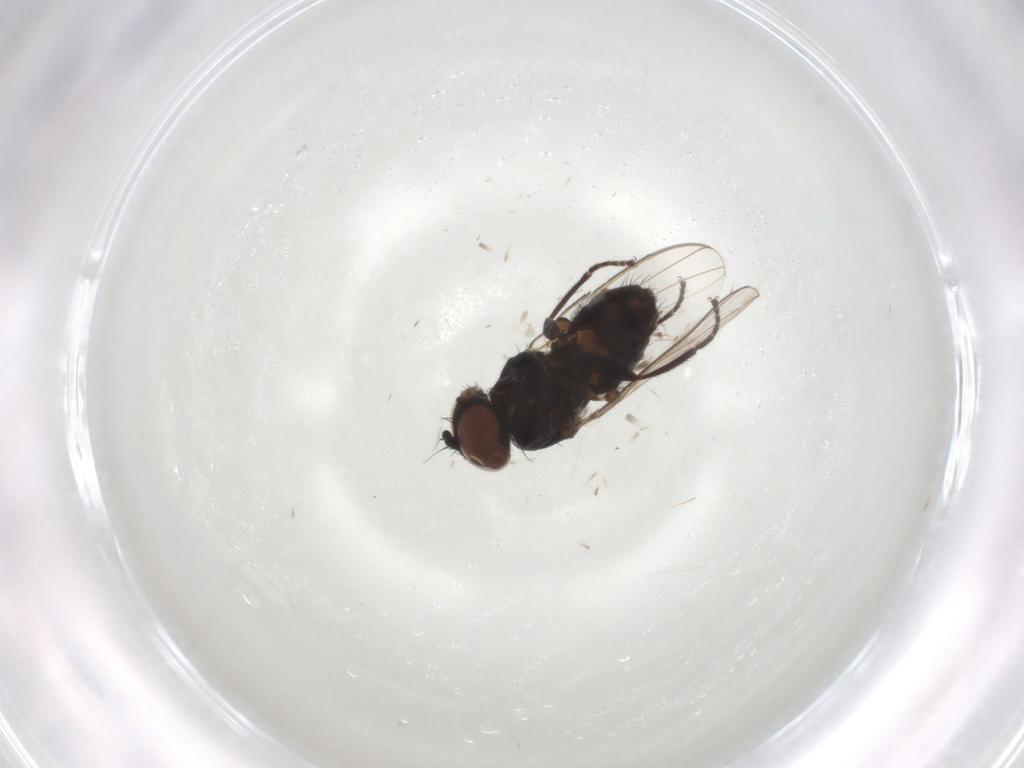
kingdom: Animalia
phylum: Arthropoda
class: Insecta
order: Diptera
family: Milichiidae
